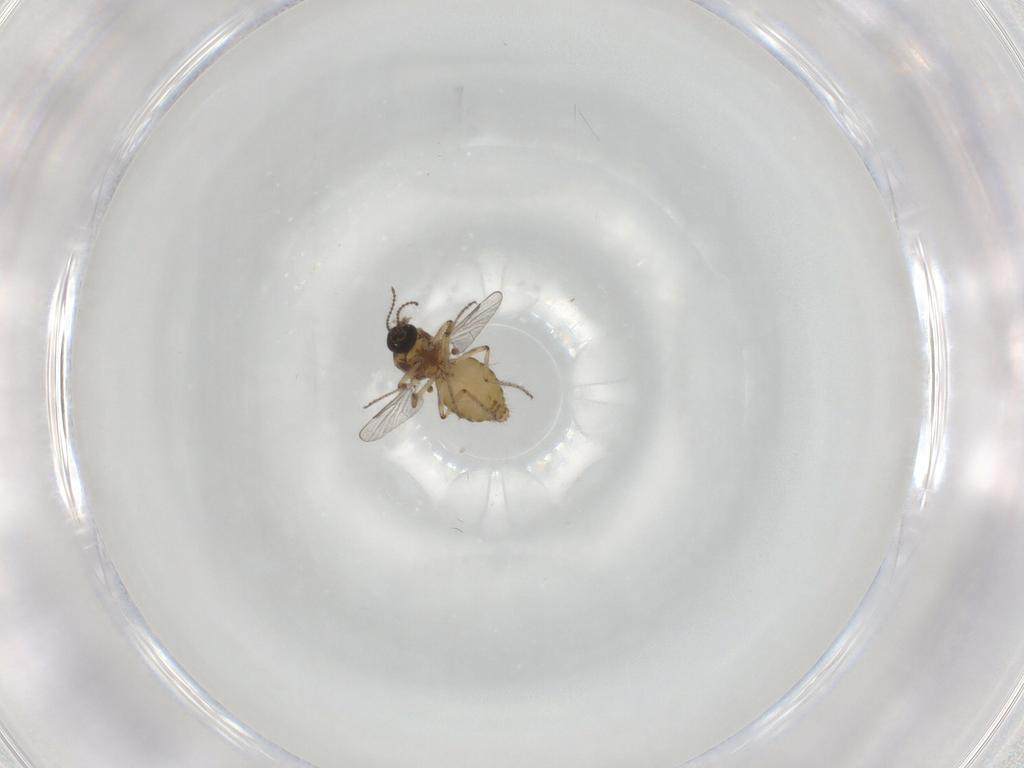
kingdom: Animalia
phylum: Arthropoda
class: Insecta
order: Diptera
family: Ceratopogonidae
